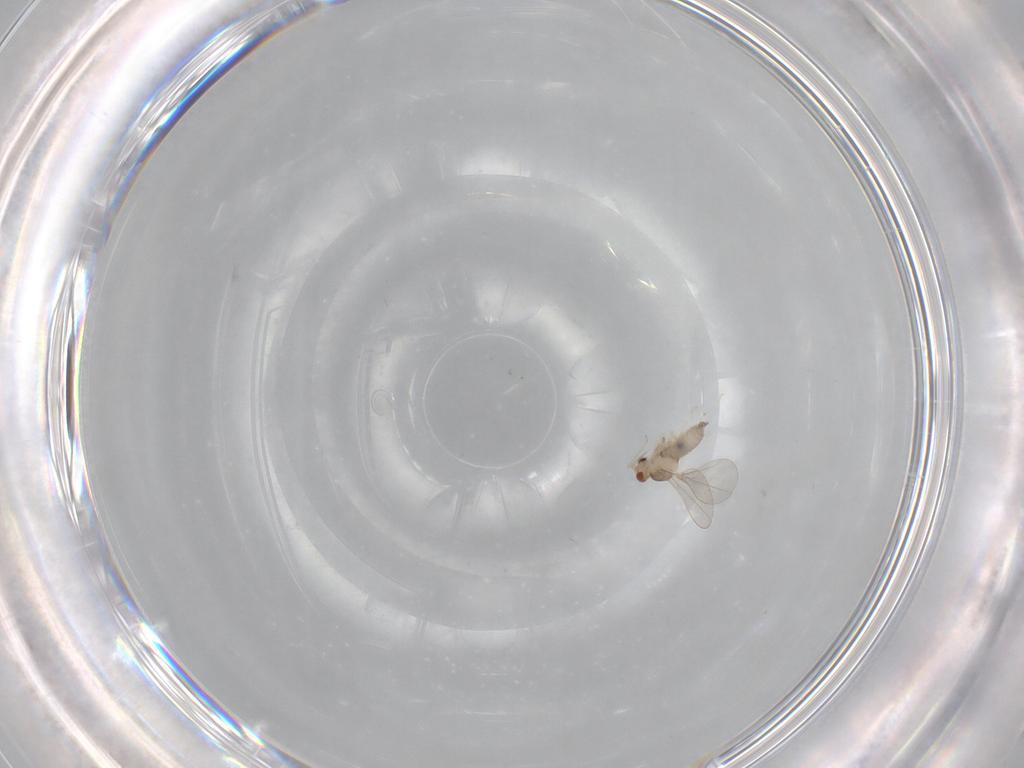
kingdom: Animalia
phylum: Arthropoda
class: Insecta
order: Diptera
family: Cecidomyiidae
